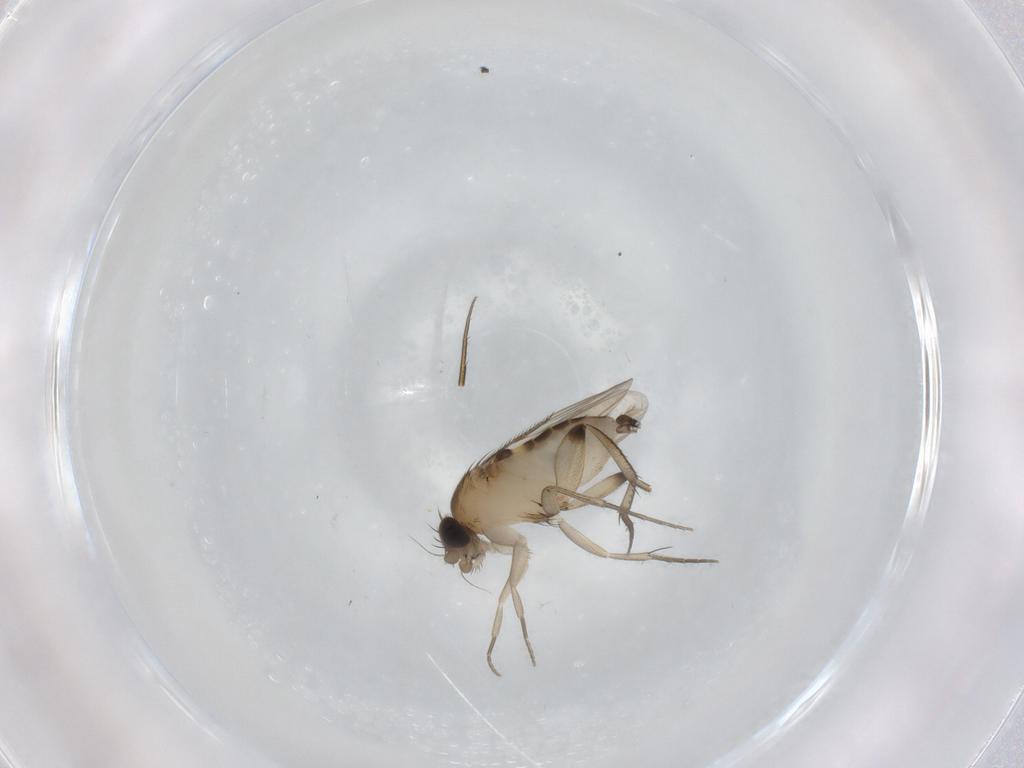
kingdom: Animalia
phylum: Arthropoda
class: Insecta
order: Diptera
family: Phoridae
